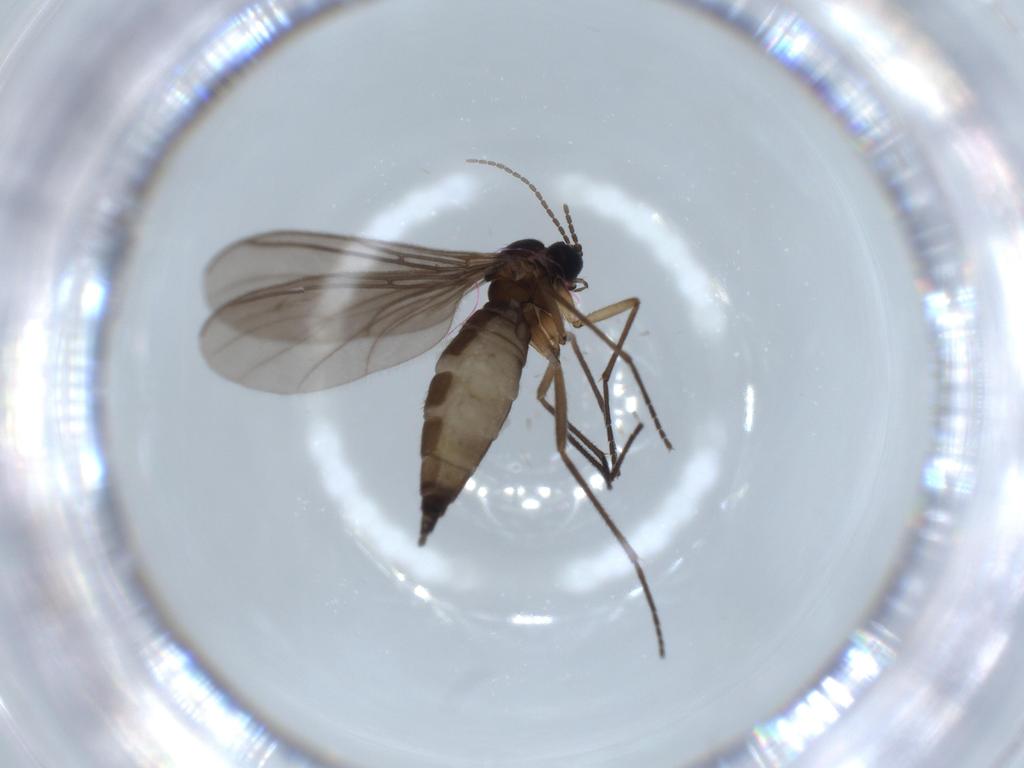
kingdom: Animalia
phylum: Arthropoda
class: Insecta
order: Diptera
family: Sciaridae
